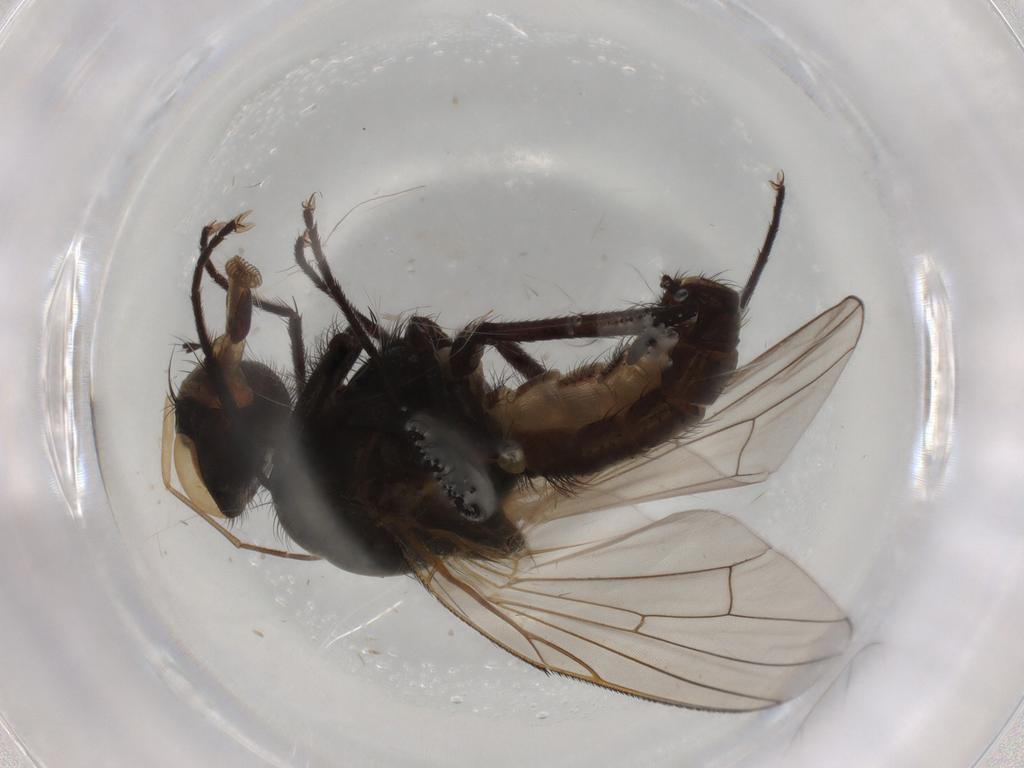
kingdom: Animalia
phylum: Arthropoda
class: Insecta
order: Diptera
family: Anthomyiidae
